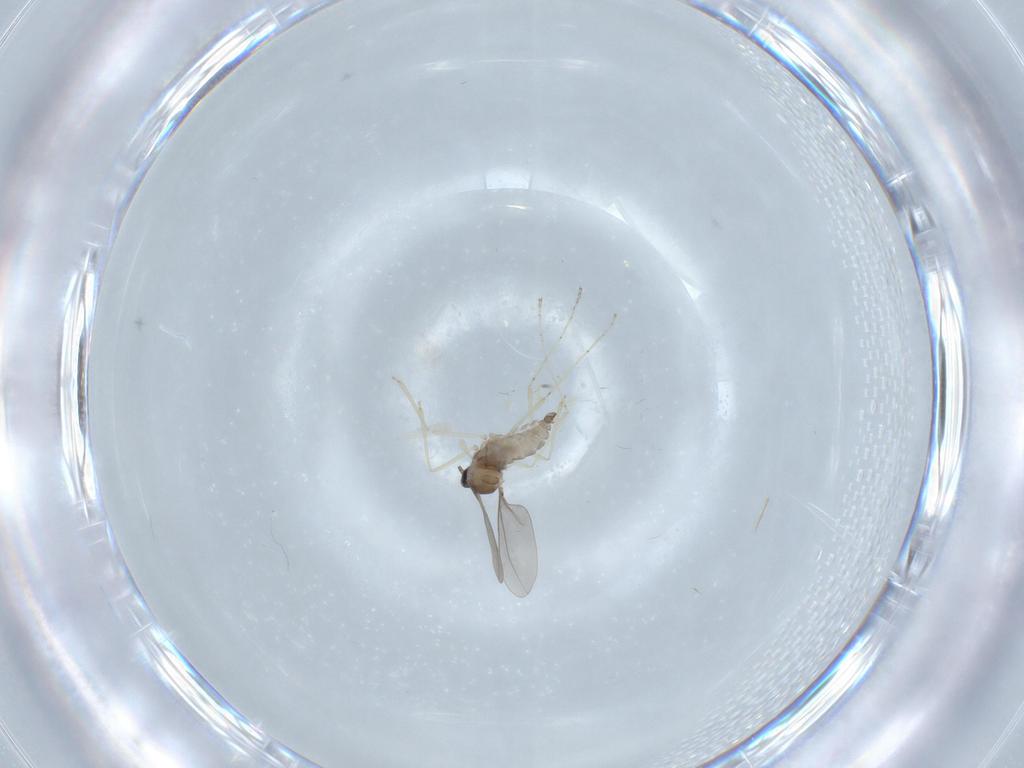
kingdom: Animalia
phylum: Arthropoda
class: Insecta
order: Diptera
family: Cecidomyiidae
